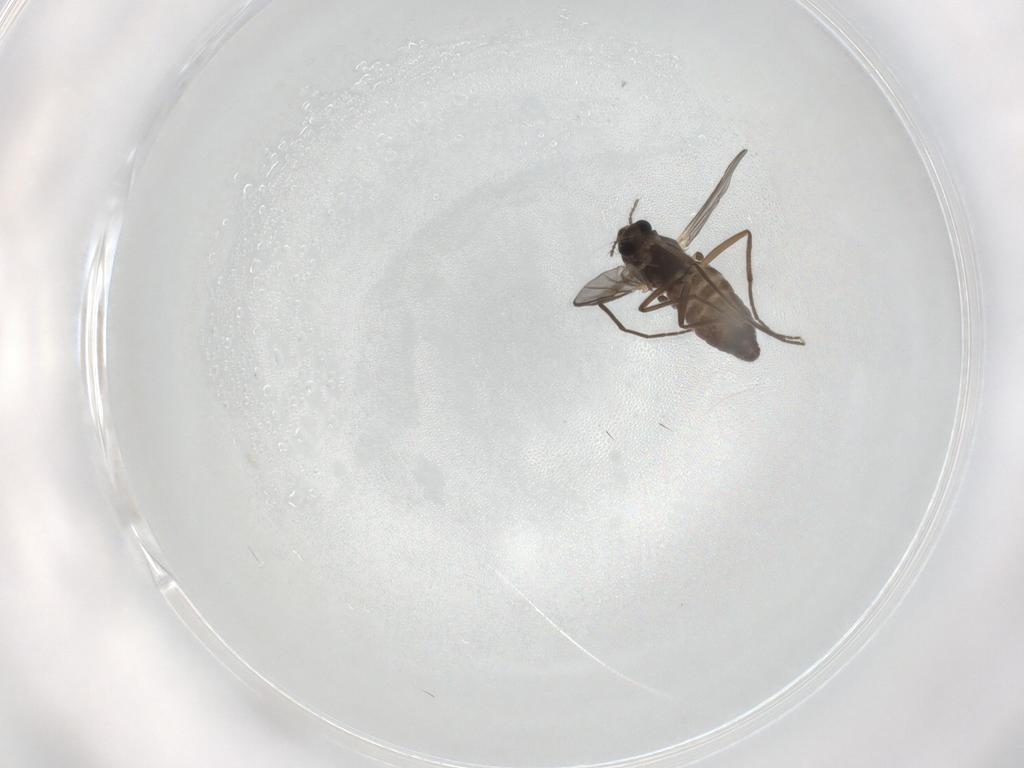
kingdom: Animalia
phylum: Arthropoda
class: Insecta
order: Diptera
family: Chironomidae
